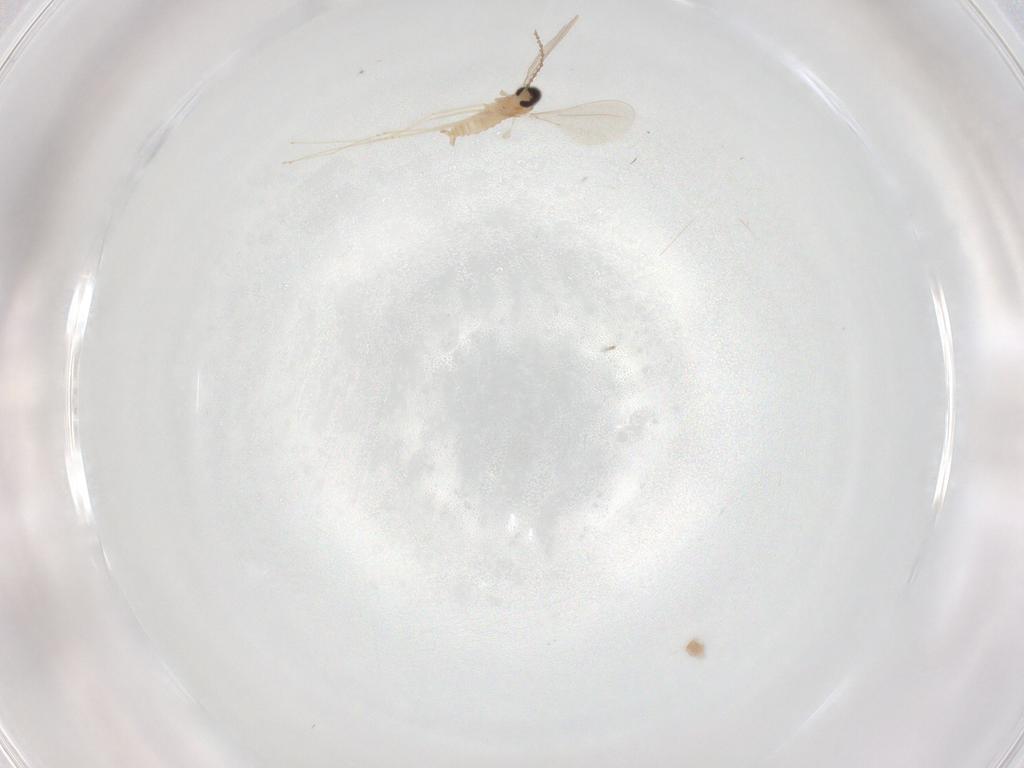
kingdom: Animalia
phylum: Arthropoda
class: Insecta
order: Diptera
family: Cecidomyiidae
